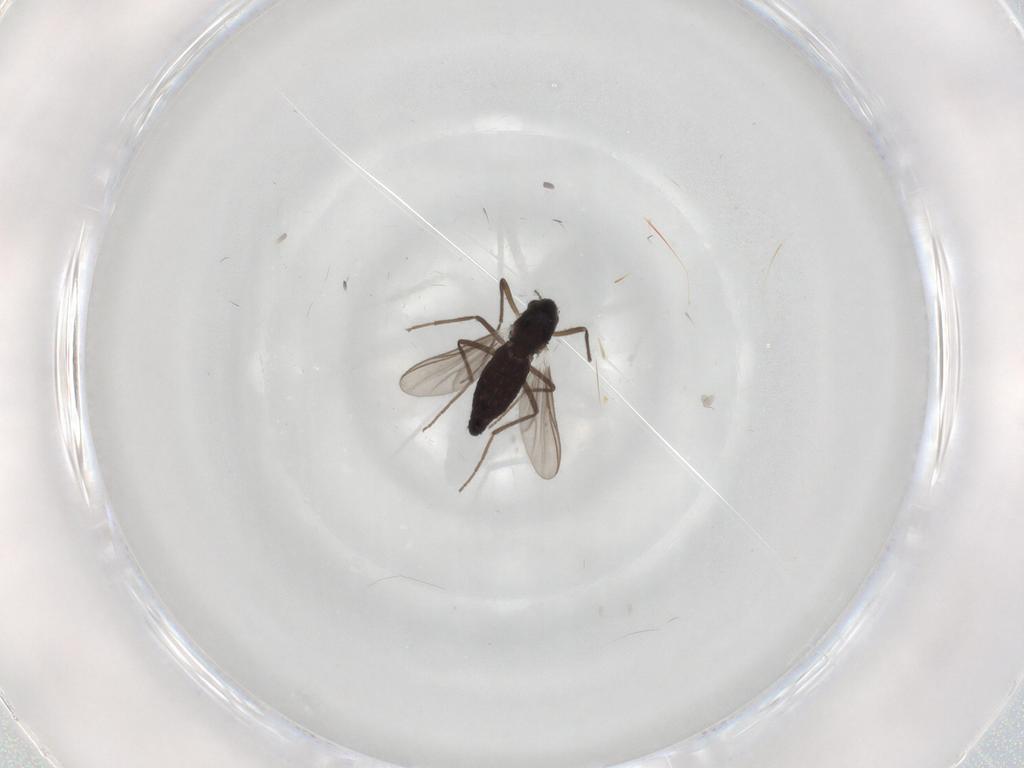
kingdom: Animalia
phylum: Arthropoda
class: Insecta
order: Diptera
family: Chironomidae
